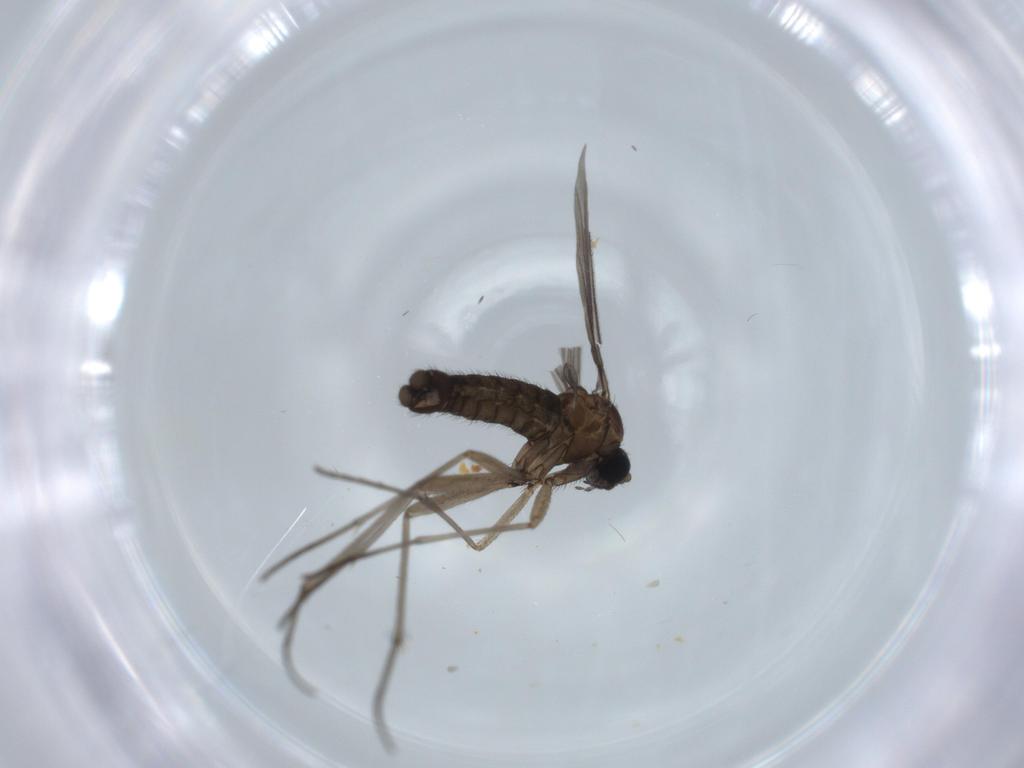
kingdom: Animalia
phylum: Arthropoda
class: Insecta
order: Diptera
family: Sciaridae
